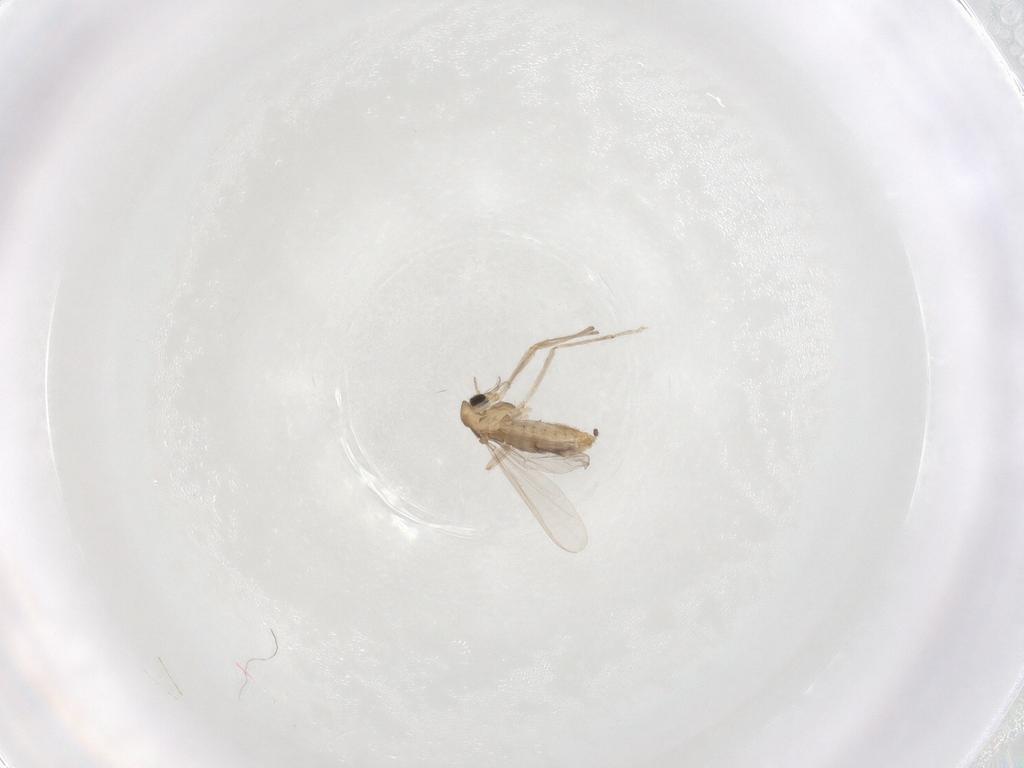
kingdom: Animalia
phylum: Arthropoda
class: Insecta
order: Diptera
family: Chironomidae
